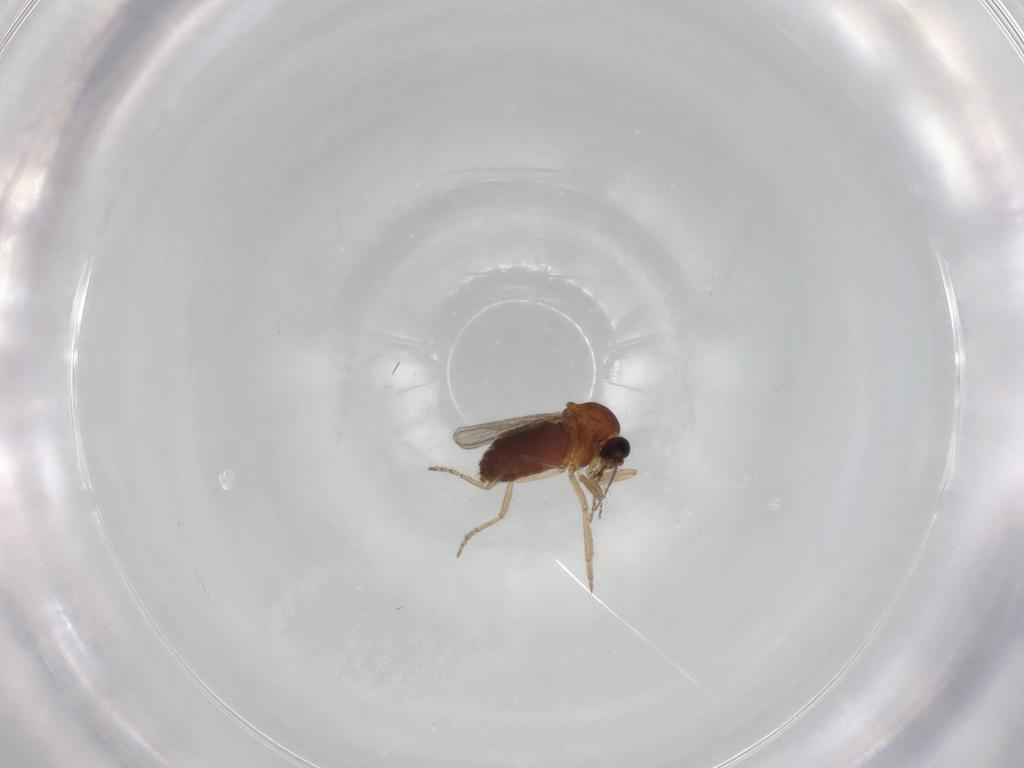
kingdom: Animalia
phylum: Arthropoda
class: Insecta
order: Diptera
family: Ceratopogonidae
